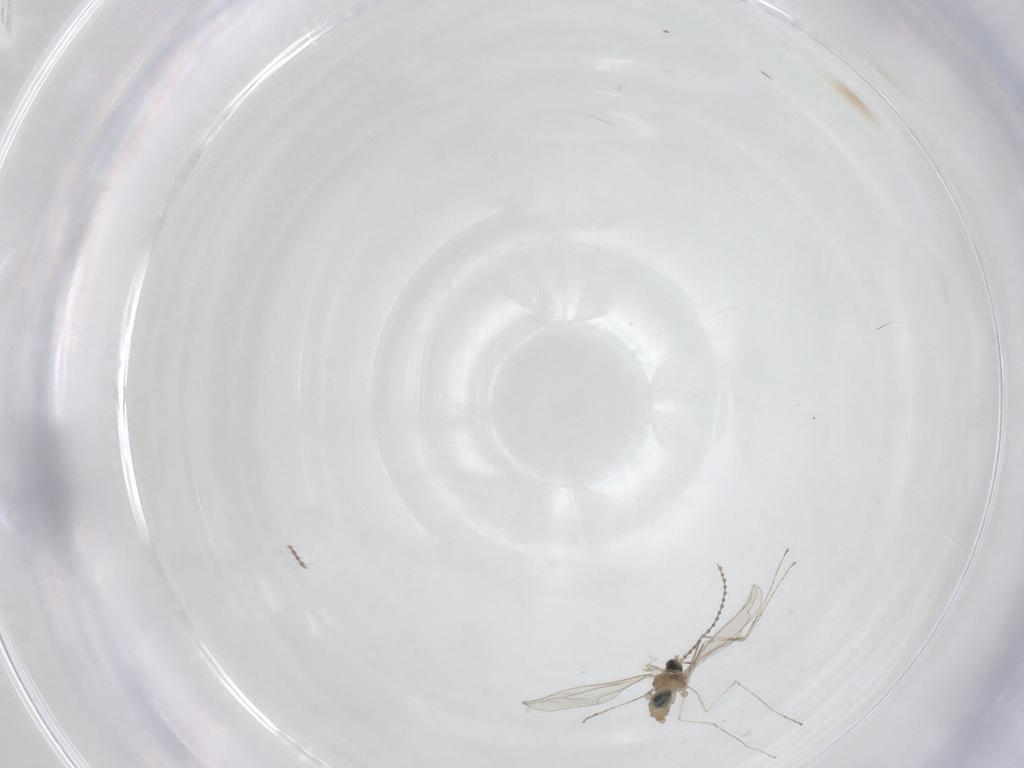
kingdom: Animalia
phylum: Arthropoda
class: Insecta
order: Diptera
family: Cecidomyiidae
